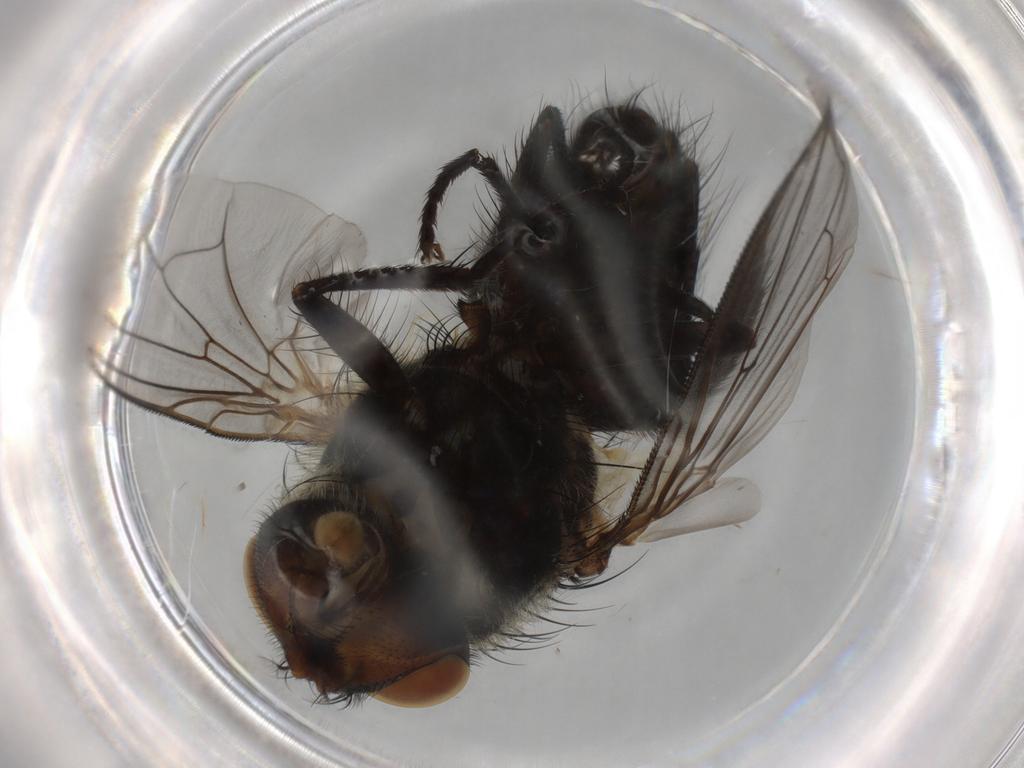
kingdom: Animalia
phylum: Arthropoda
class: Insecta
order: Diptera
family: Polleniidae
